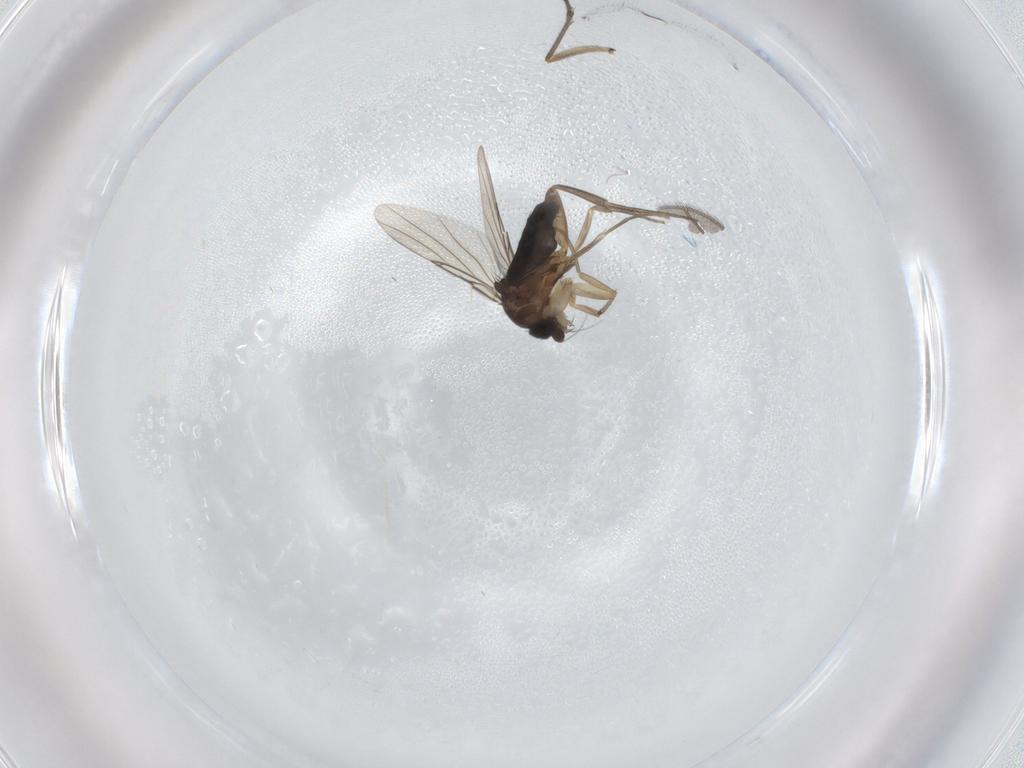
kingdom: Animalia
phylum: Arthropoda
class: Insecta
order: Diptera
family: Phoridae
